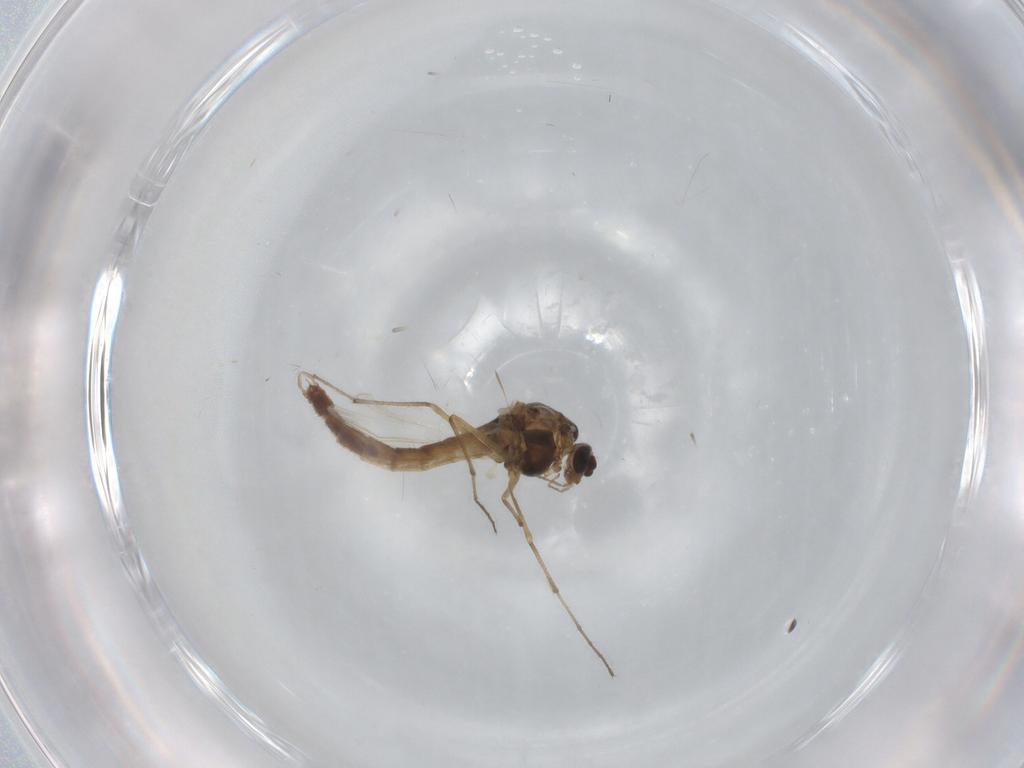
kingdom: Animalia
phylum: Arthropoda
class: Insecta
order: Diptera
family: Chironomidae
